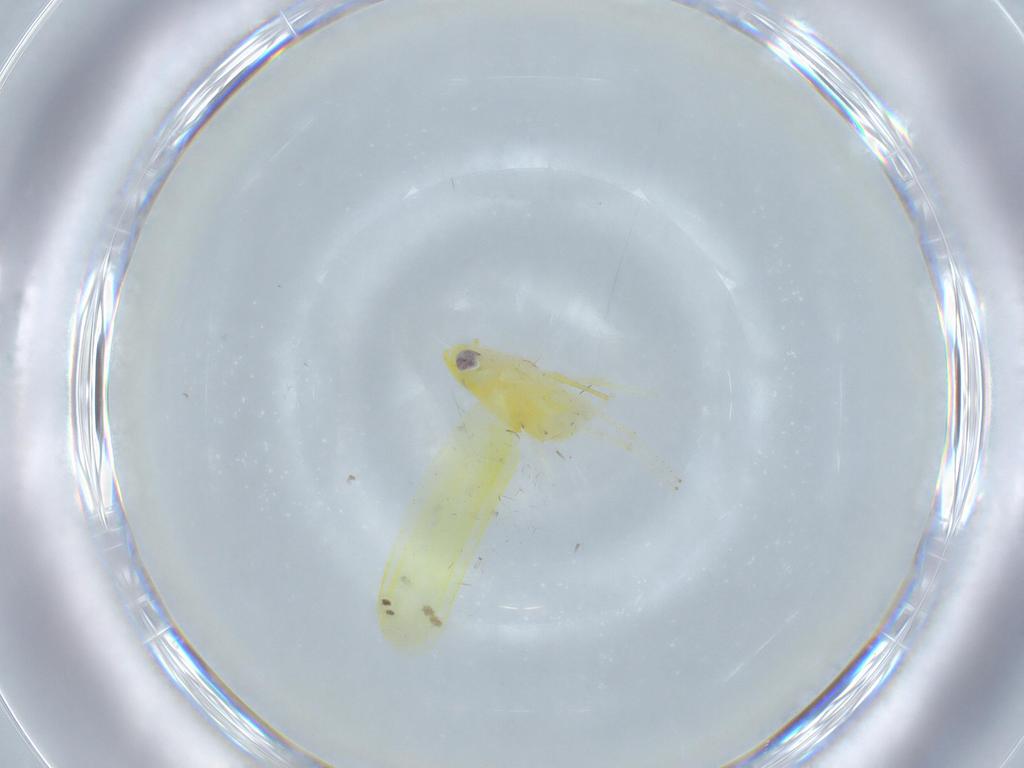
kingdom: Animalia
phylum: Arthropoda
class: Insecta
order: Hemiptera
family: Cicadellidae
